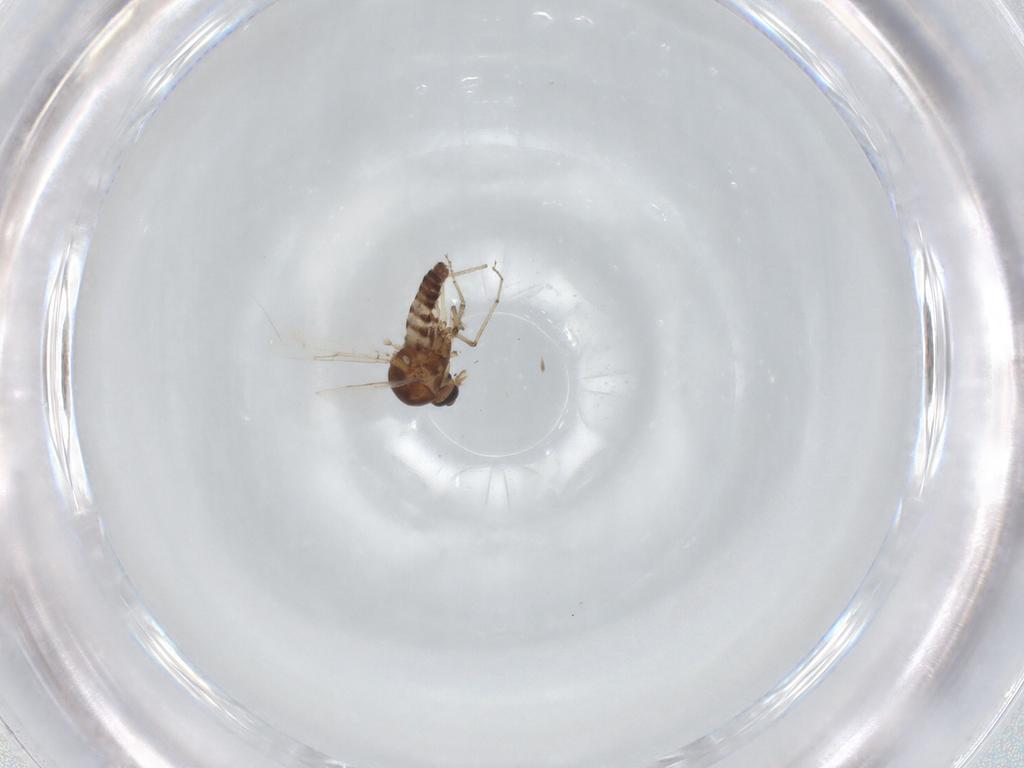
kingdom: Animalia
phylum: Arthropoda
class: Insecta
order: Diptera
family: Ceratopogonidae
